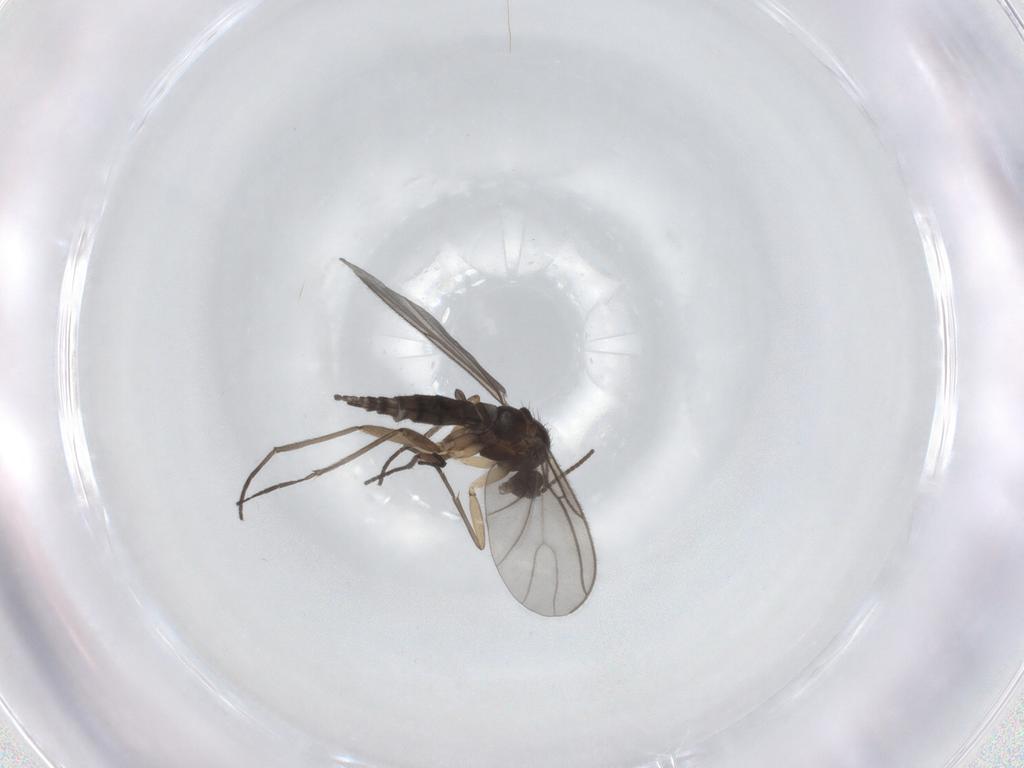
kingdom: Animalia
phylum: Arthropoda
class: Insecta
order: Diptera
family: Sciaridae
